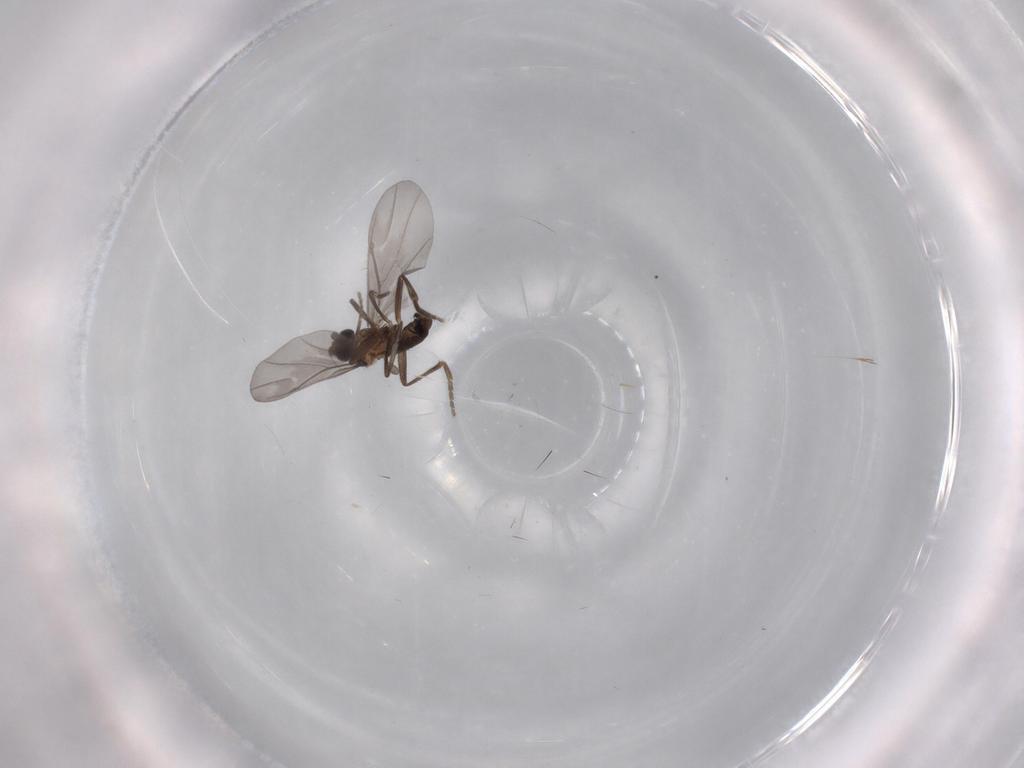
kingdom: Animalia
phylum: Arthropoda
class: Insecta
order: Diptera
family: Phoridae
